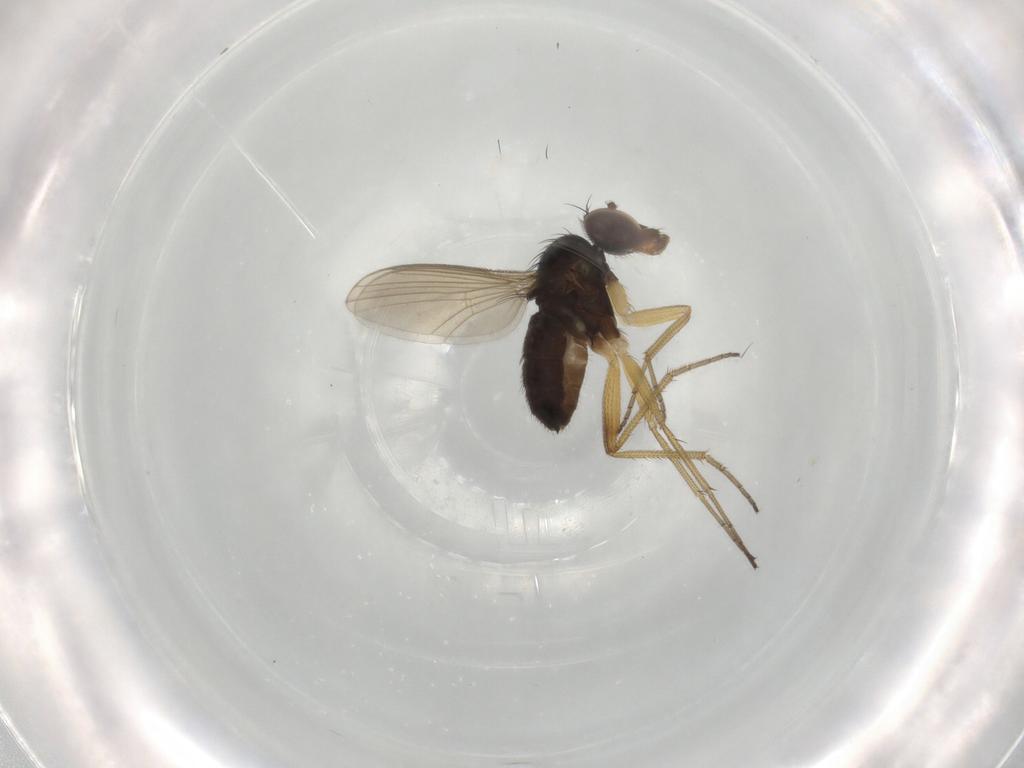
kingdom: Animalia
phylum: Arthropoda
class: Insecta
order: Diptera
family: Dolichopodidae
